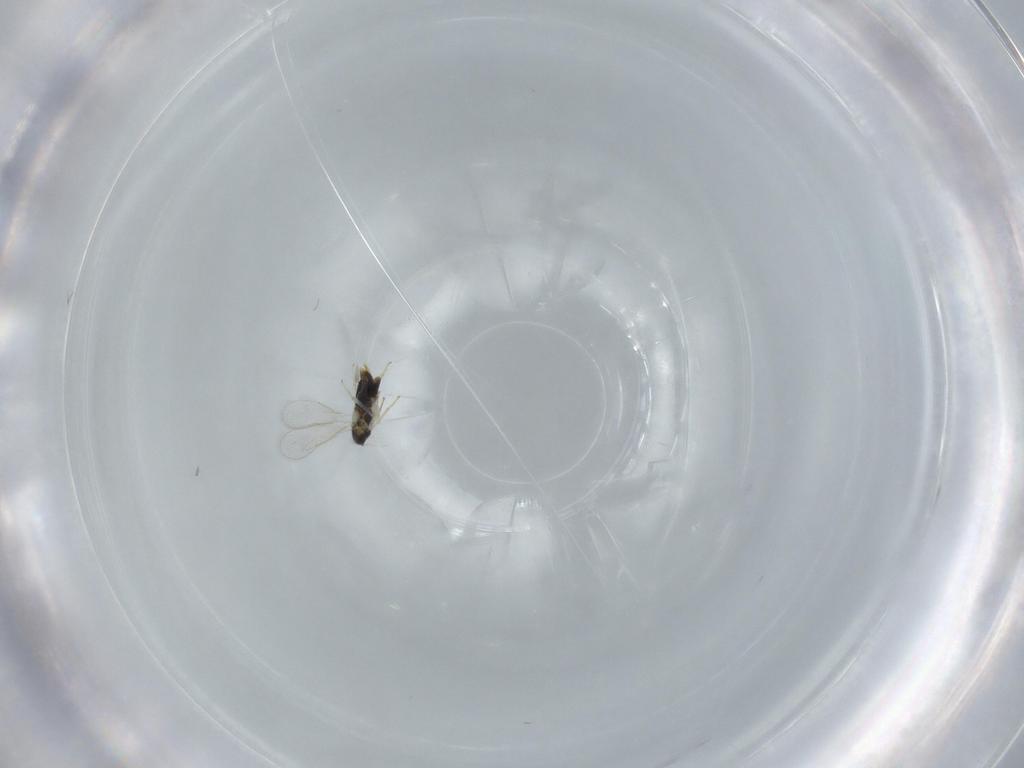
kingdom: Animalia
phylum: Arthropoda
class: Insecta
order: Hymenoptera
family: Aphelinidae
